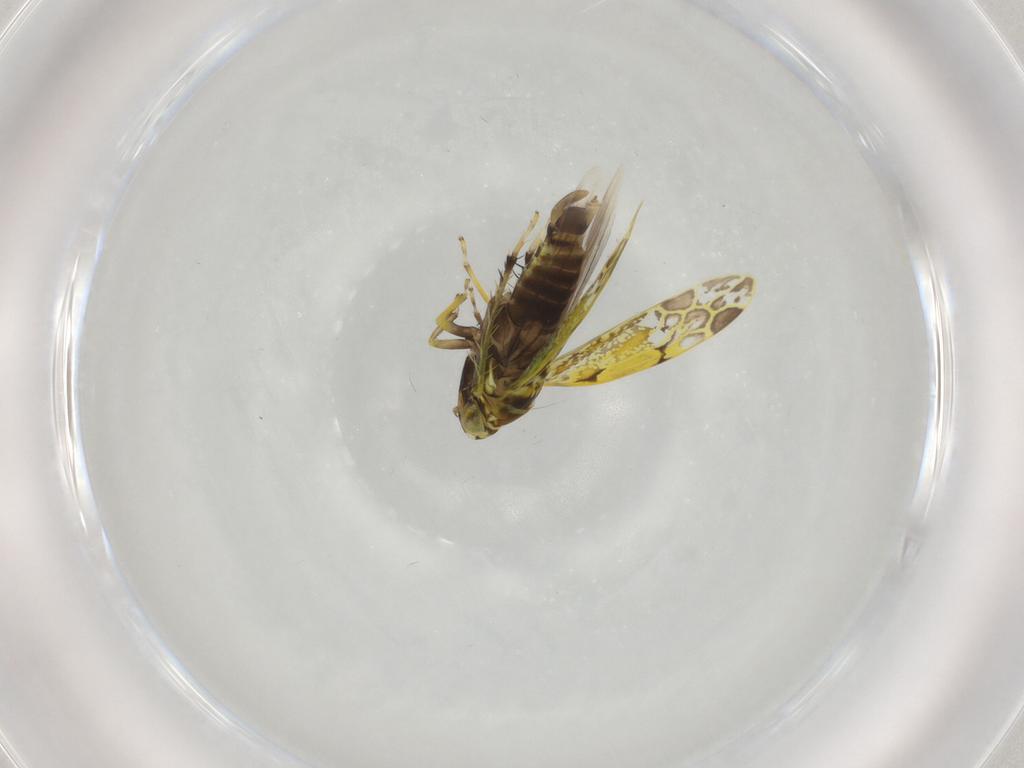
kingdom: Animalia
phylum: Arthropoda
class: Insecta
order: Hemiptera
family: Cicadellidae
